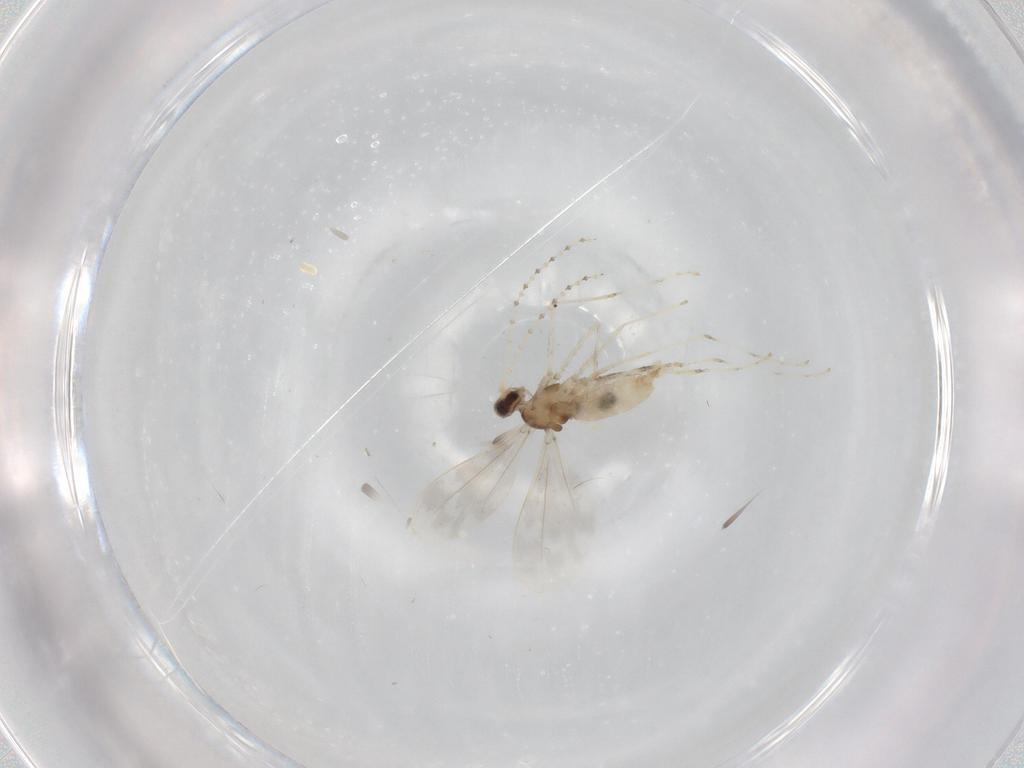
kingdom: Animalia
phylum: Arthropoda
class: Insecta
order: Diptera
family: Cecidomyiidae
